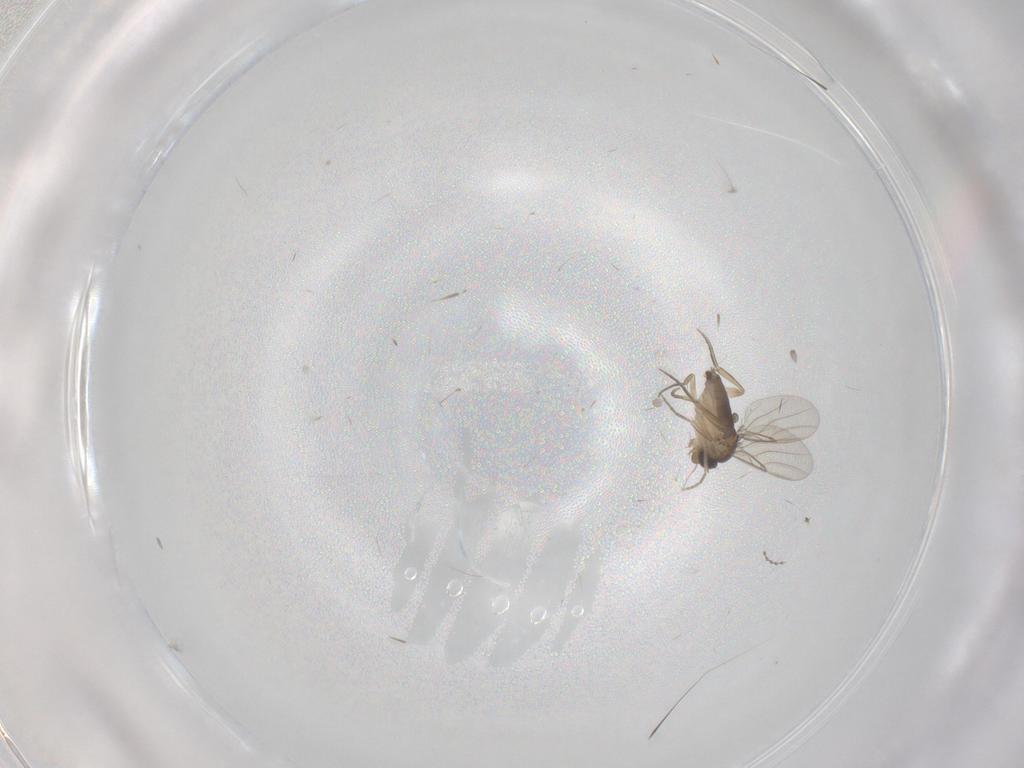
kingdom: Animalia
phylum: Arthropoda
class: Insecta
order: Diptera
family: Phoridae
